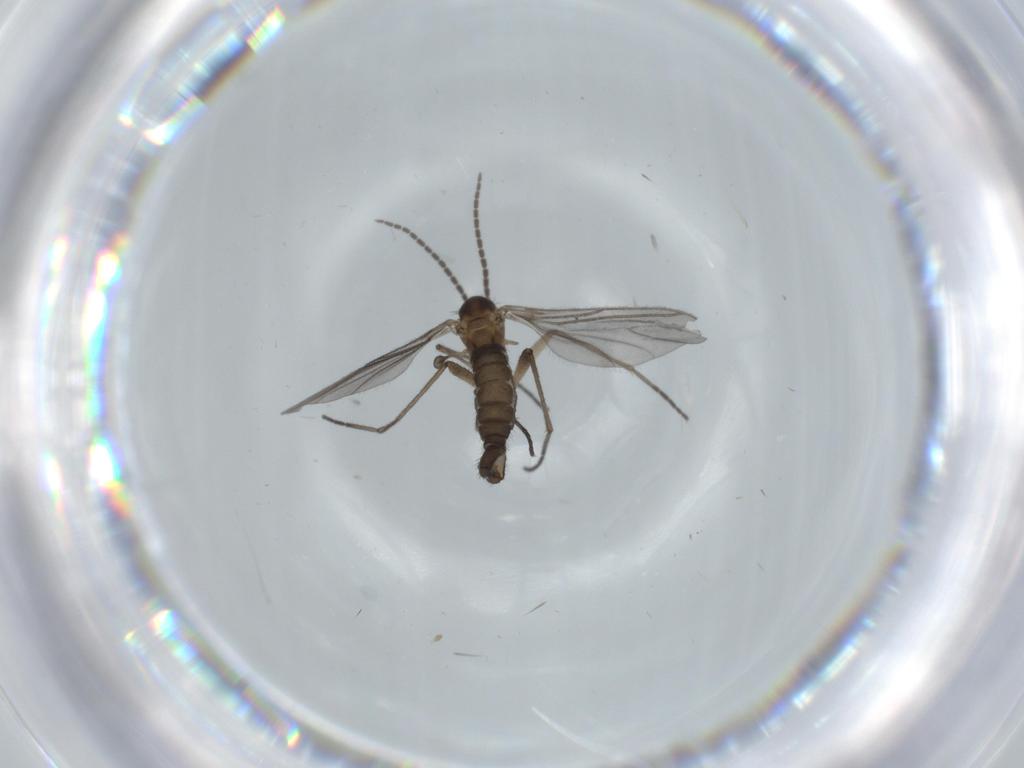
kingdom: Animalia
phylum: Arthropoda
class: Insecta
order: Diptera
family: Sciaridae
